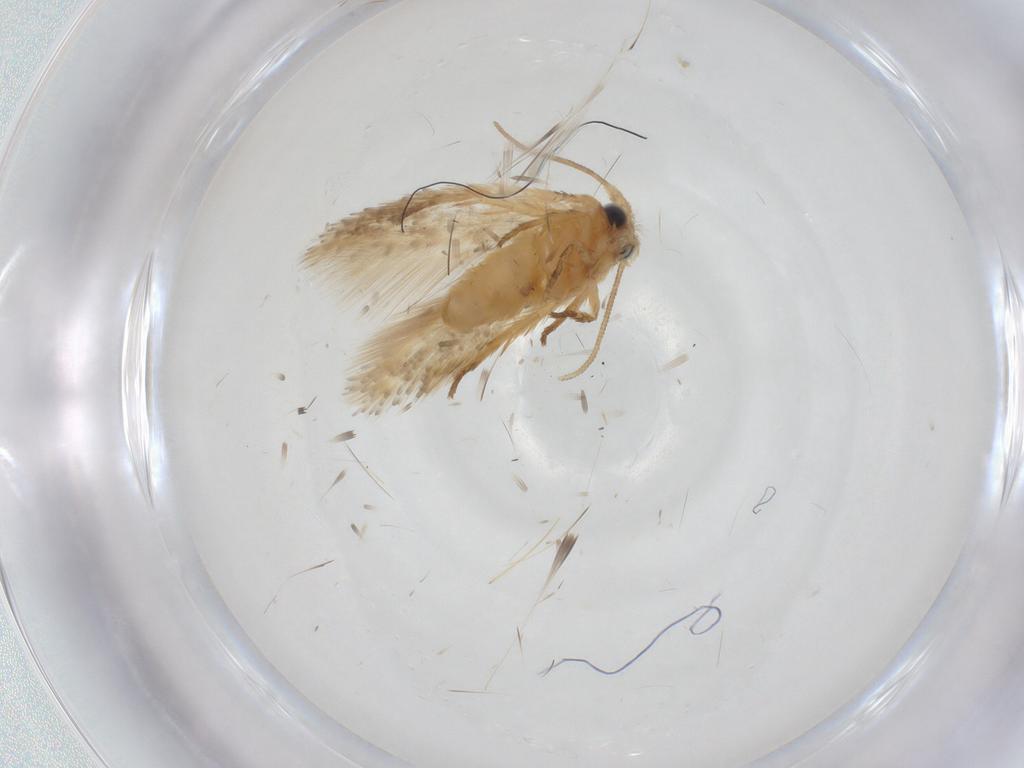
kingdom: Animalia
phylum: Arthropoda
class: Insecta
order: Lepidoptera
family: Nepticulidae
